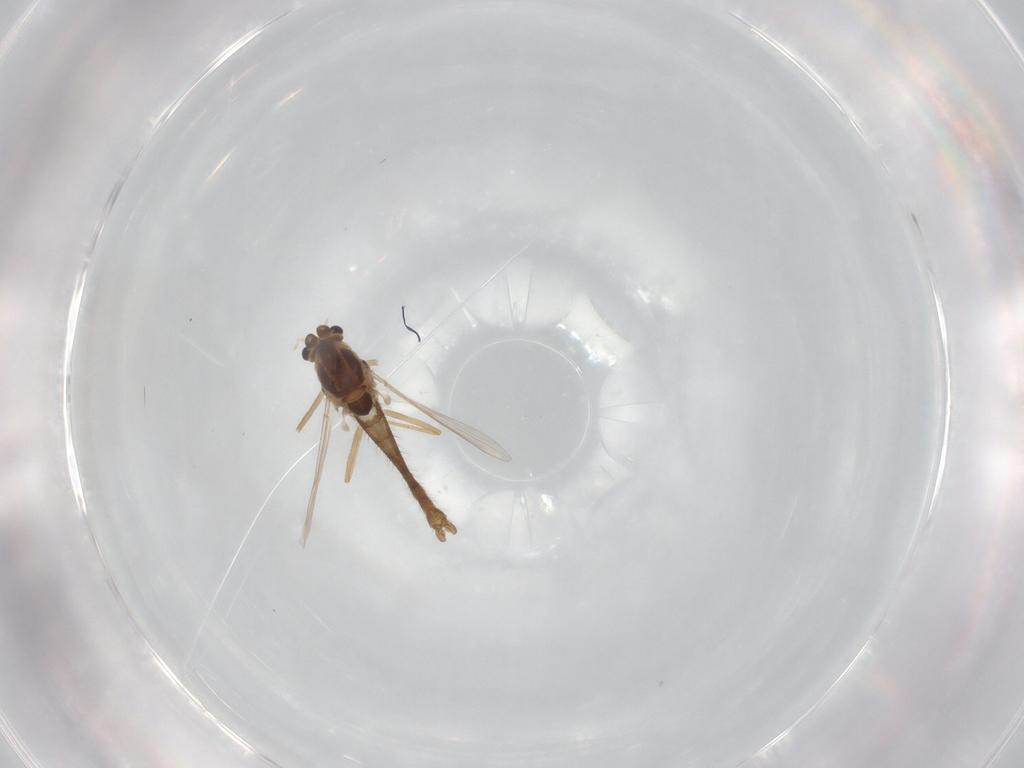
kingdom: Animalia
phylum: Arthropoda
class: Insecta
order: Diptera
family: Chironomidae
